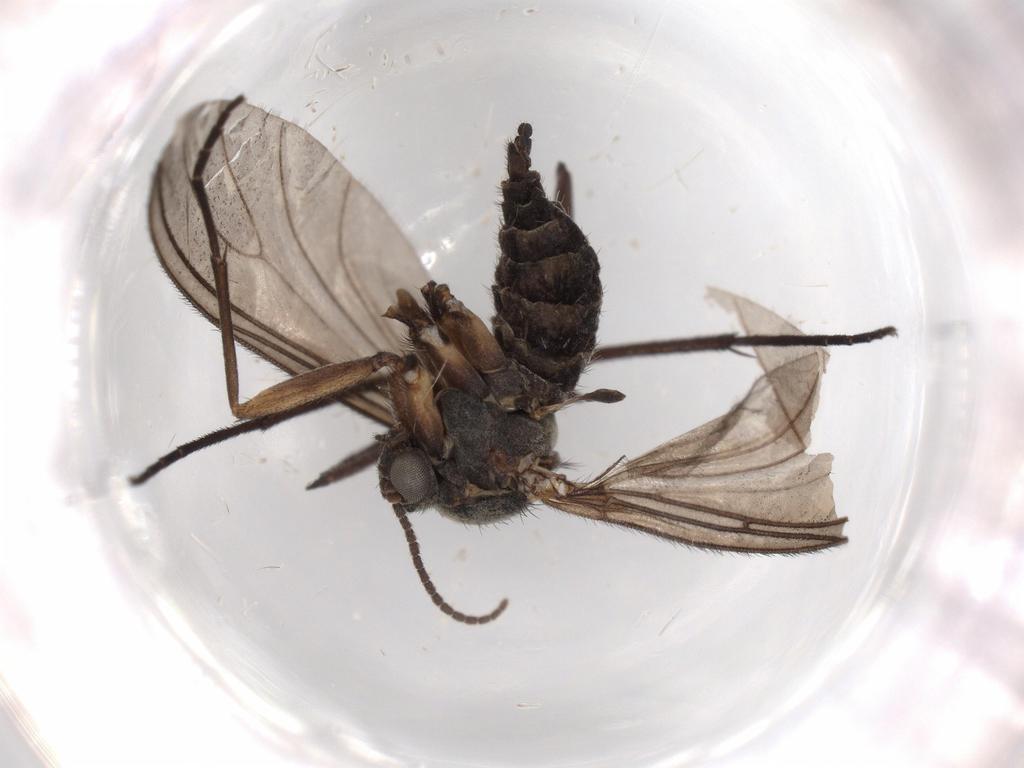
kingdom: Animalia
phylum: Arthropoda
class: Insecta
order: Diptera
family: Sciaridae
